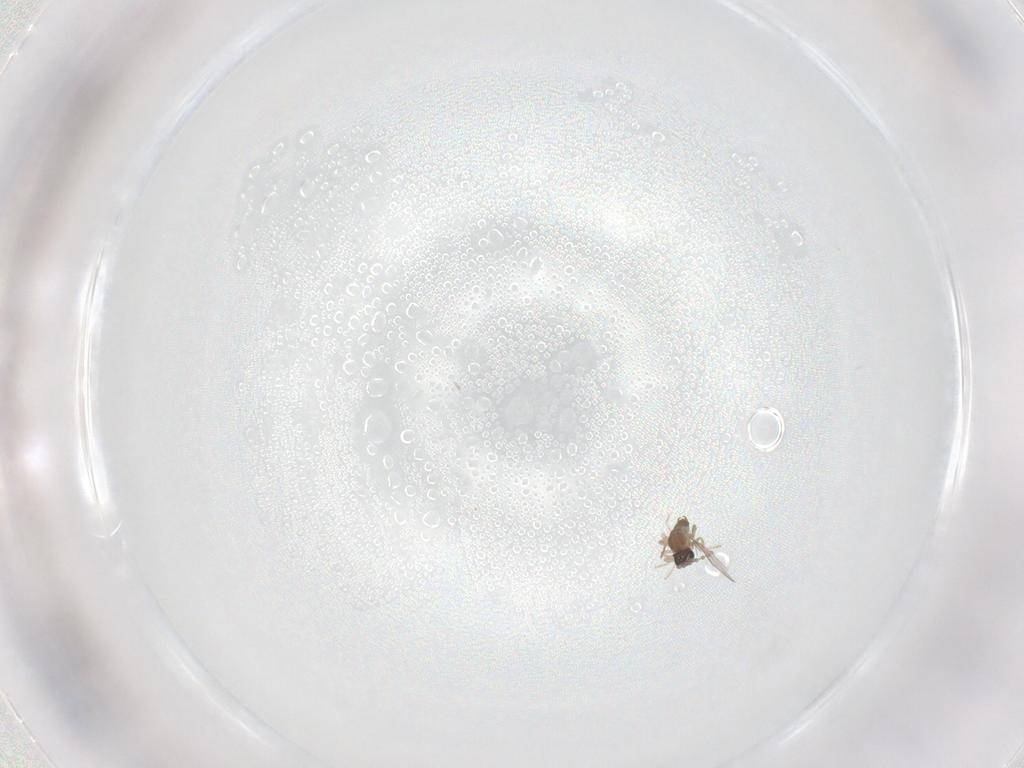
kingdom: Animalia
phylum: Arthropoda
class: Insecta
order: Diptera
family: Cecidomyiidae
